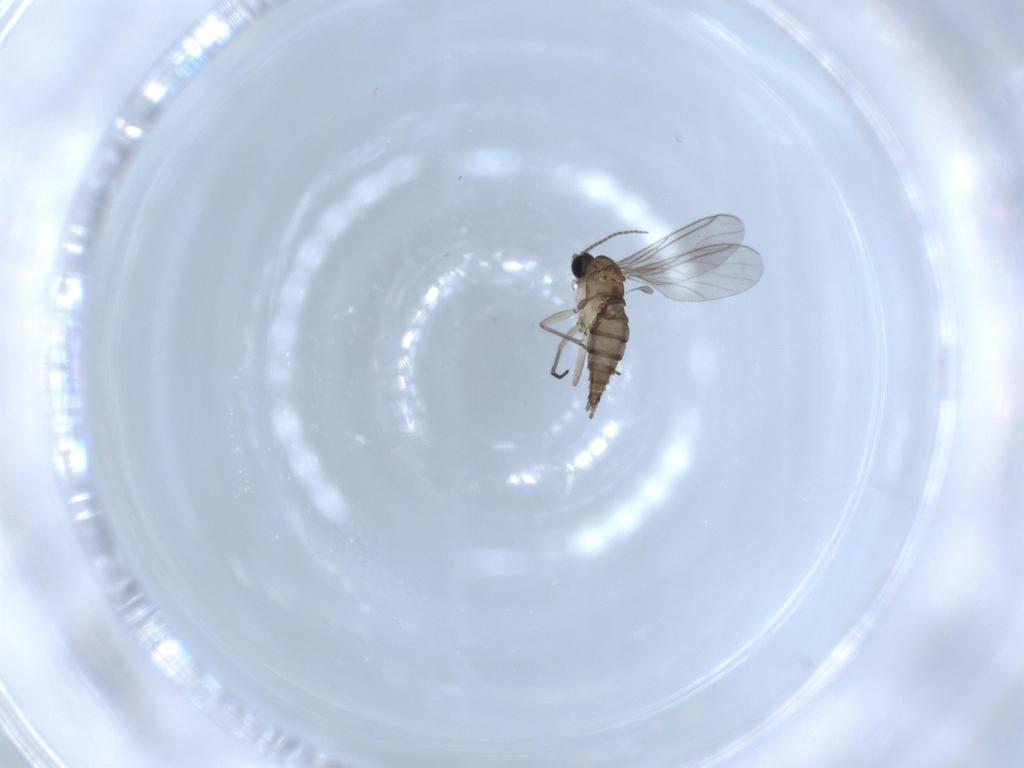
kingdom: Animalia
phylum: Arthropoda
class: Insecta
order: Diptera
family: Sciaridae
